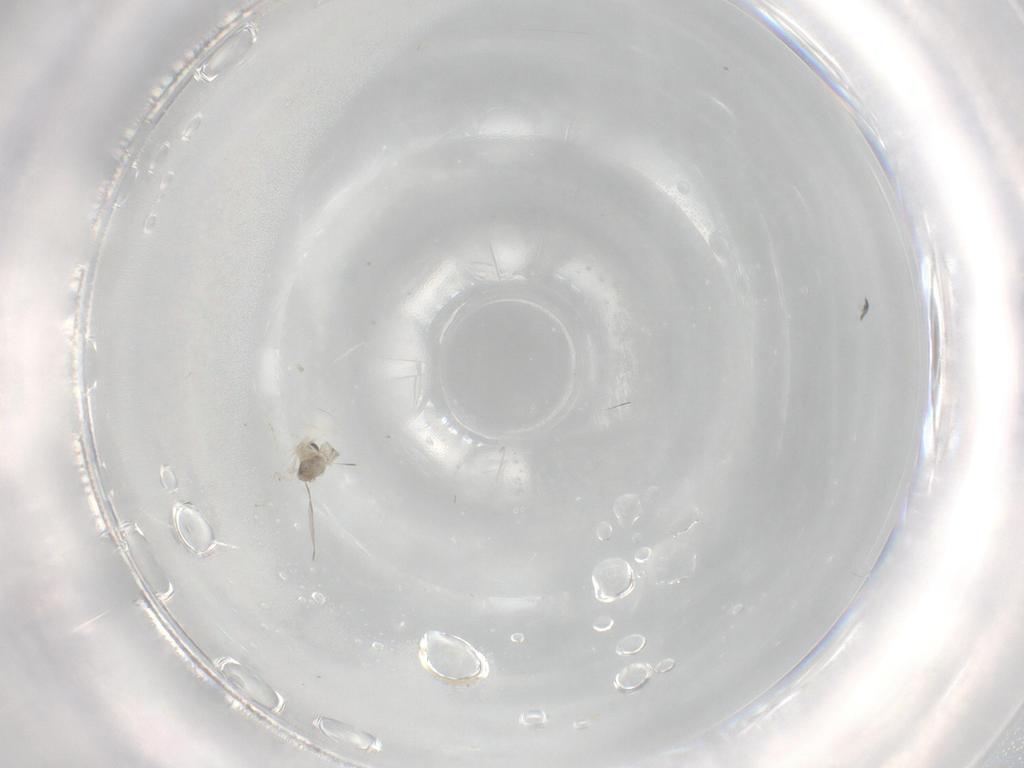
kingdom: Animalia
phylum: Arthropoda
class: Insecta
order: Diptera
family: Cecidomyiidae
